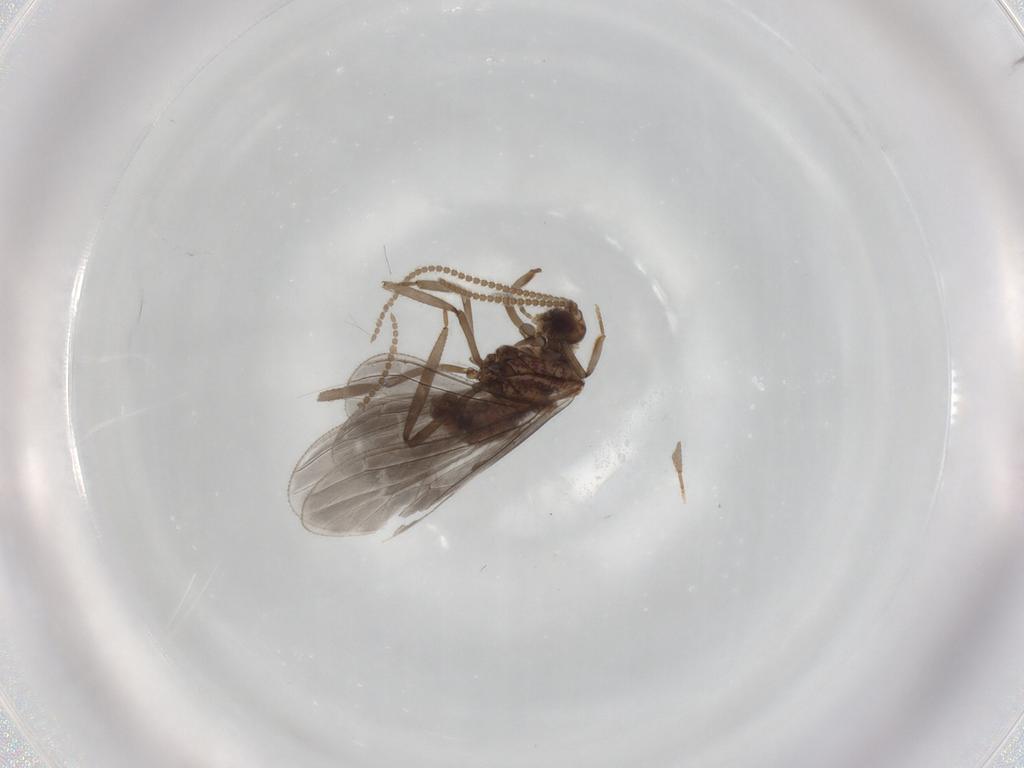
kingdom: Animalia
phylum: Arthropoda
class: Insecta
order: Neuroptera
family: Coniopterygidae
